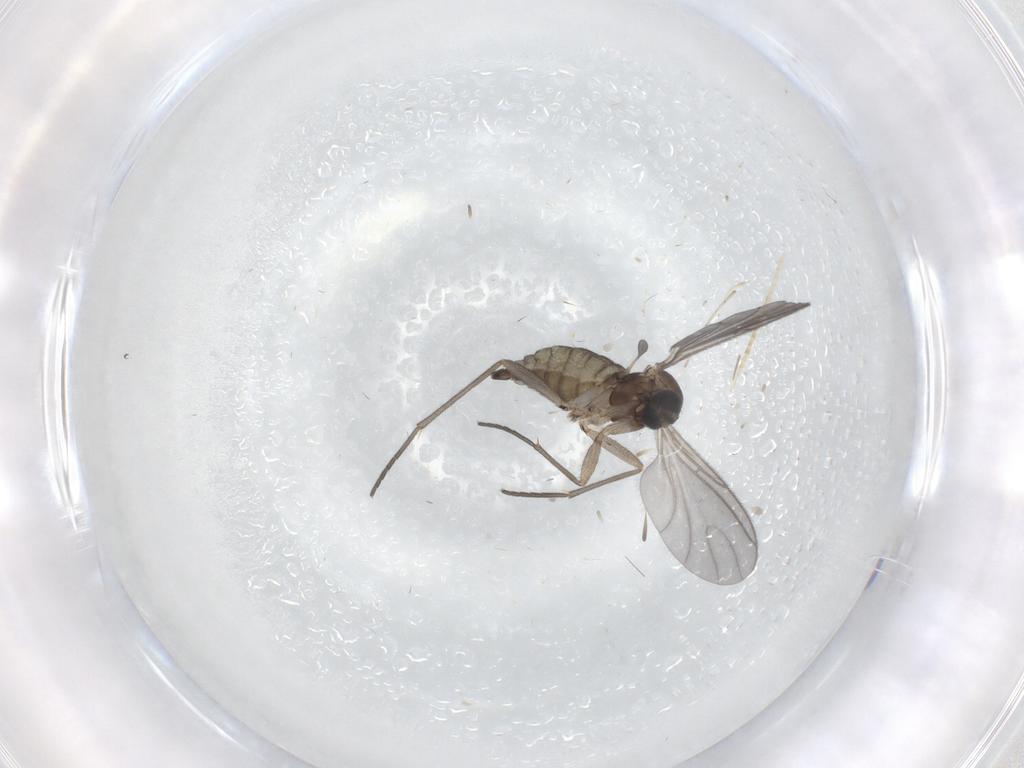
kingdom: Animalia
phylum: Arthropoda
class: Insecta
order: Diptera
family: Sciaridae
